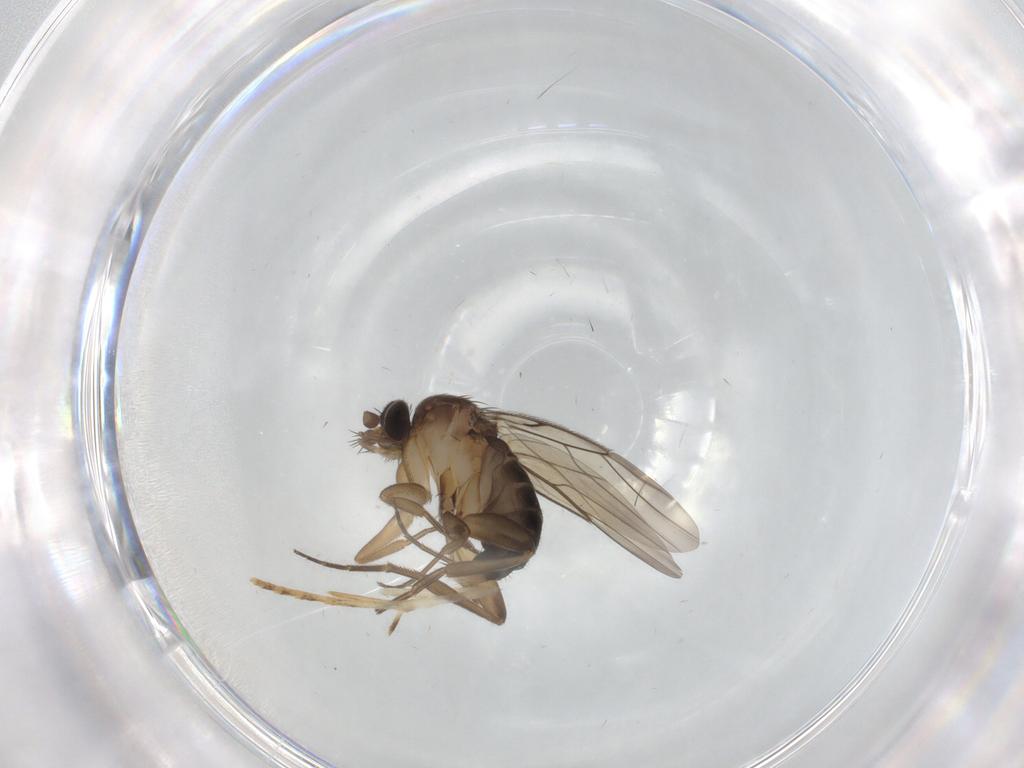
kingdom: Animalia
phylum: Arthropoda
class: Insecta
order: Diptera
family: Phoridae
